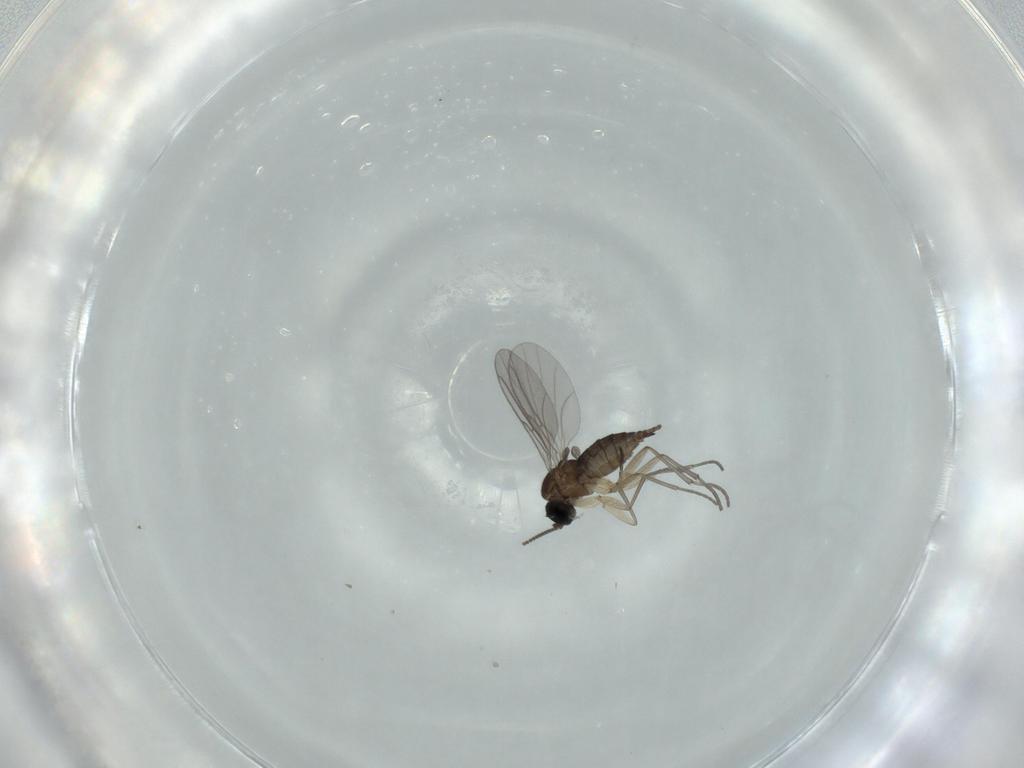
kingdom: Animalia
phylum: Arthropoda
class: Insecta
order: Diptera
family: Sciaridae
